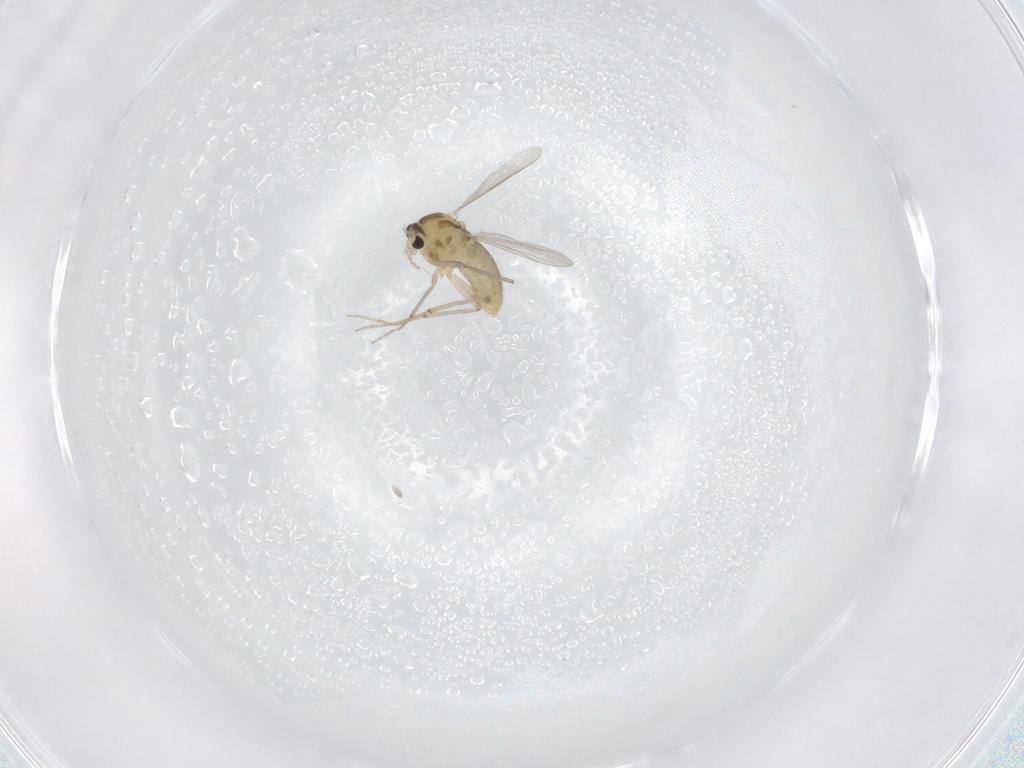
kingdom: Animalia
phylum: Arthropoda
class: Insecta
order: Diptera
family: Chironomidae
